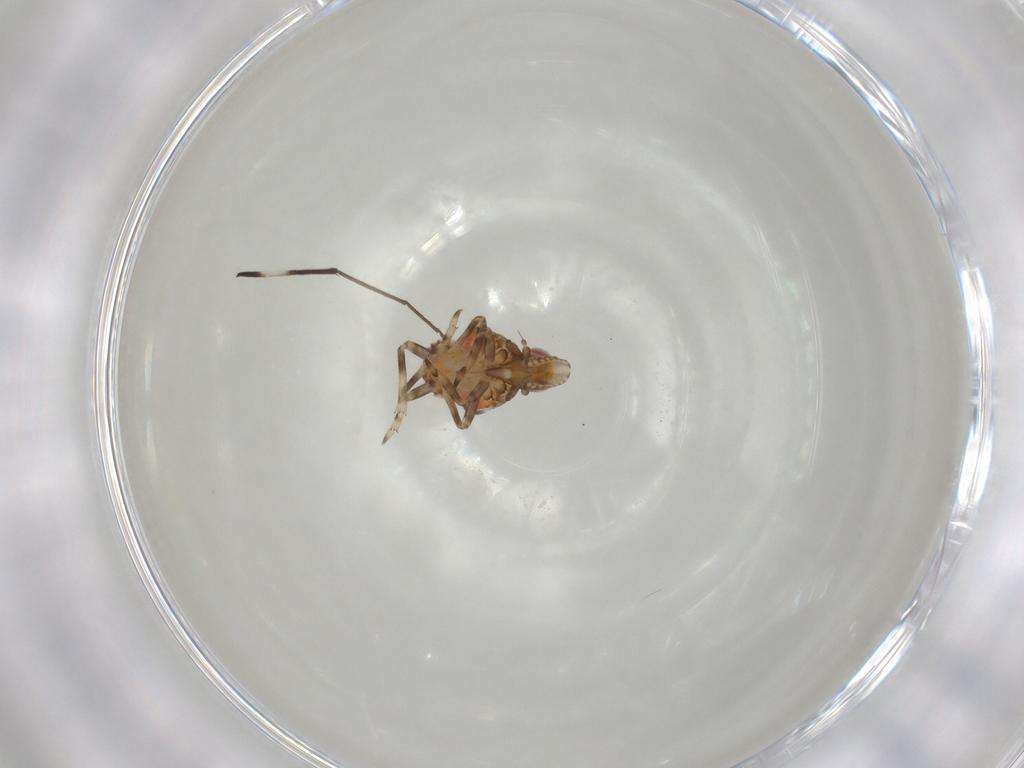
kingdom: Animalia
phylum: Arthropoda
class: Insecta
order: Hemiptera
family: Tropiduchidae
